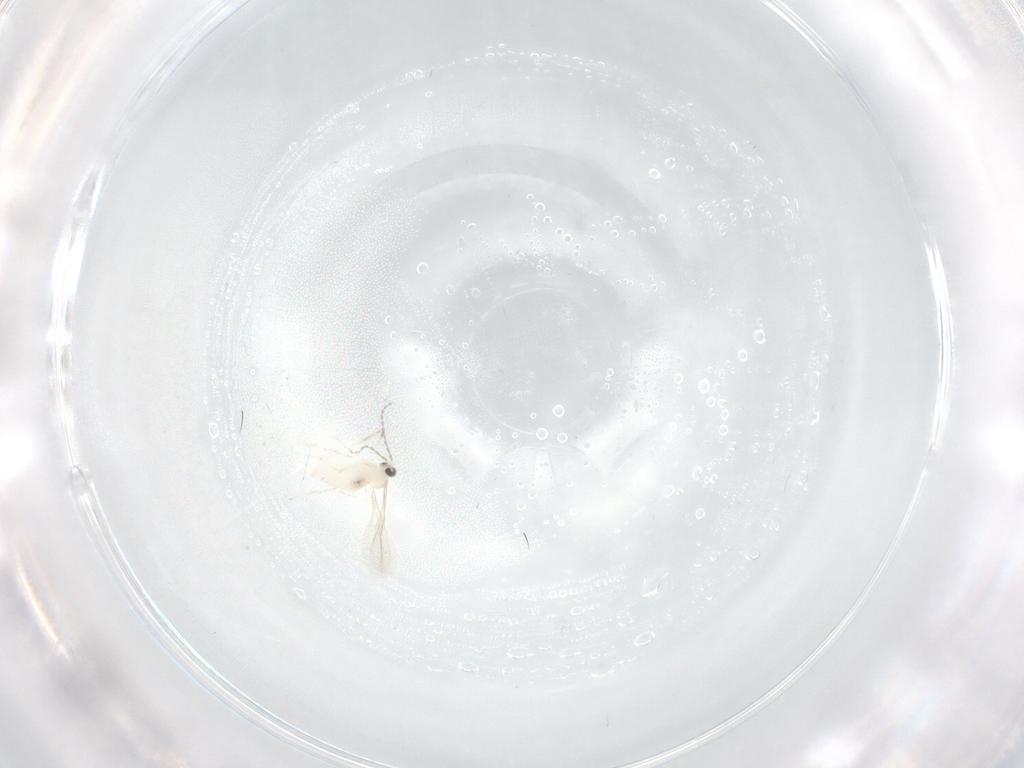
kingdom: Animalia
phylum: Arthropoda
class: Insecta
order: Diptera
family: Cecidomyiidae
